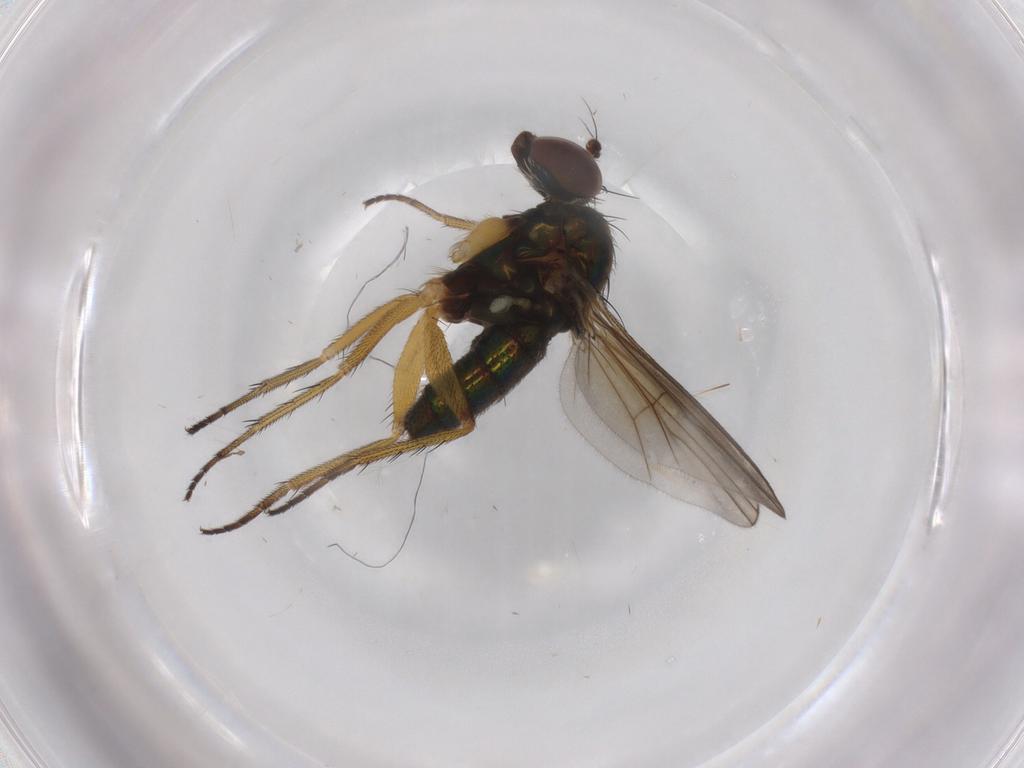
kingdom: Animalia
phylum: Arthropoda
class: Insecta
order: Diptera
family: Dolichopodidae
